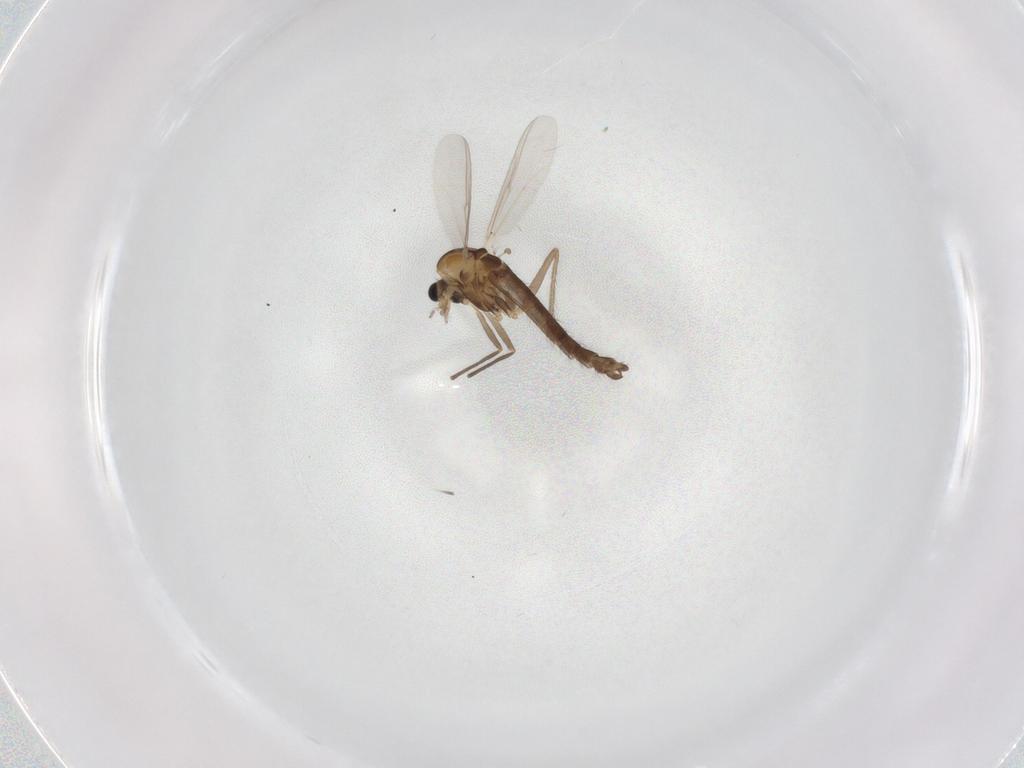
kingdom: Animalia
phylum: Arthropoda
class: Insecta
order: Diptera
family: Chironomidae
